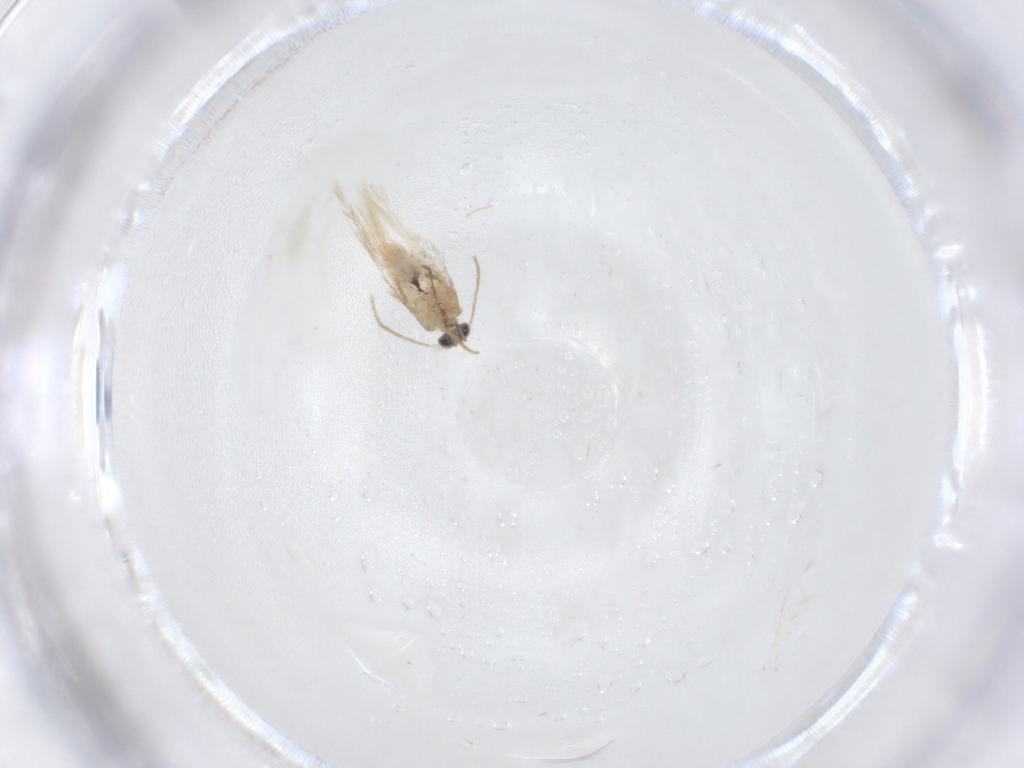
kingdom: Animalia
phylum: Arthropoda
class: Insecta
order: Lepidoptera
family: Nepticulidae
